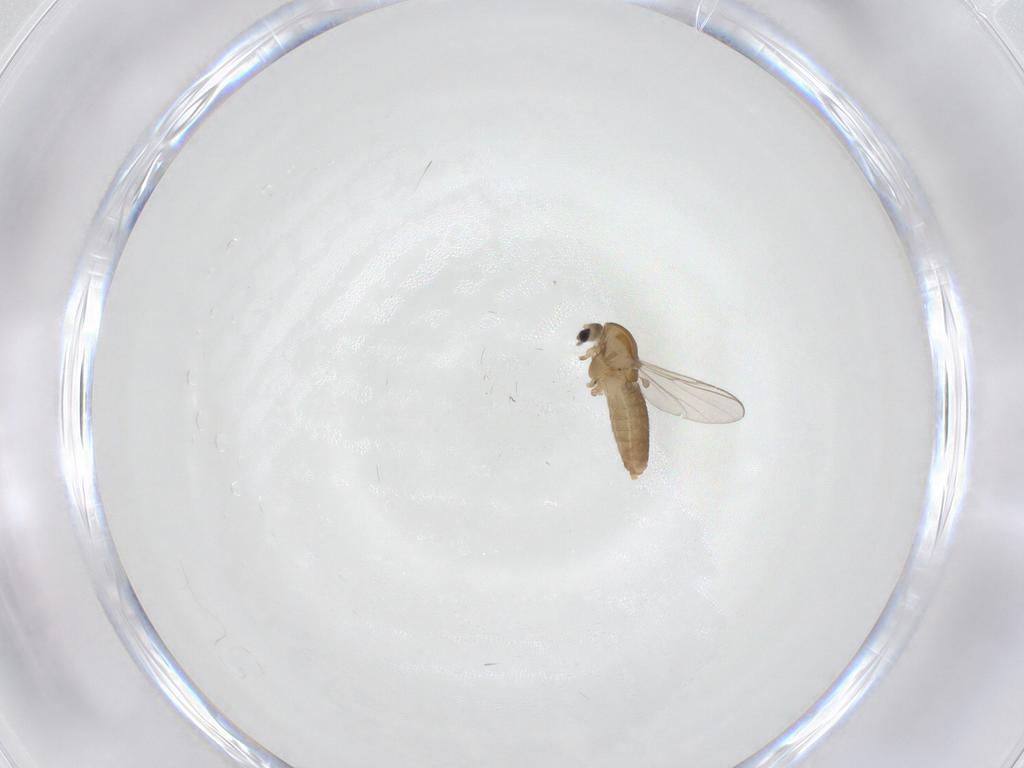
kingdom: Animalia
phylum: Arthropoda
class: Insecta
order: Diptera
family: Chironomidae
